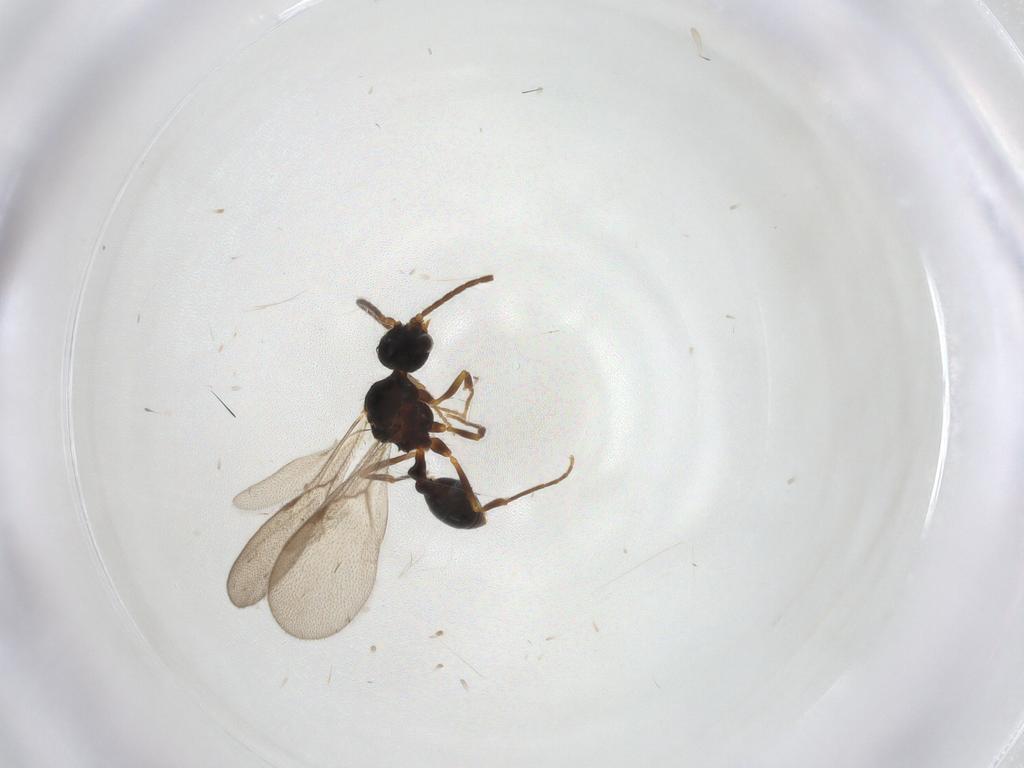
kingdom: Animalia
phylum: Arthropoda
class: Insecta
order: Hymenoptera
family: Formicidae
